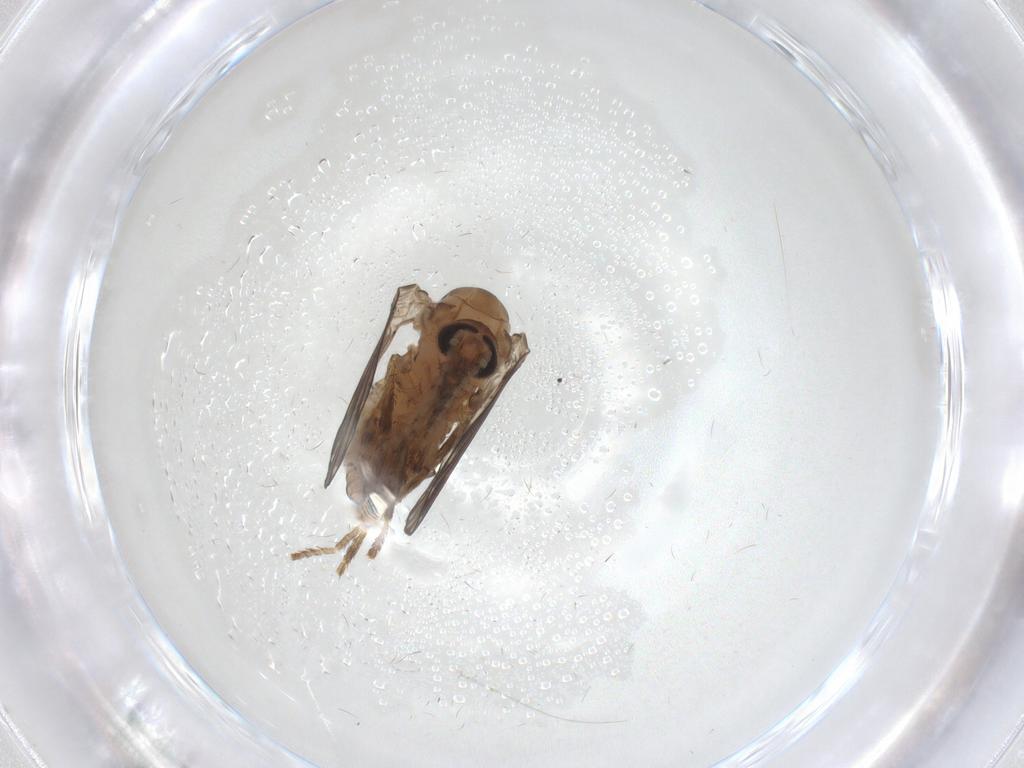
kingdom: Animalia
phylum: Arthropoda
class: Insecta
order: Diptera
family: Psychodidae
